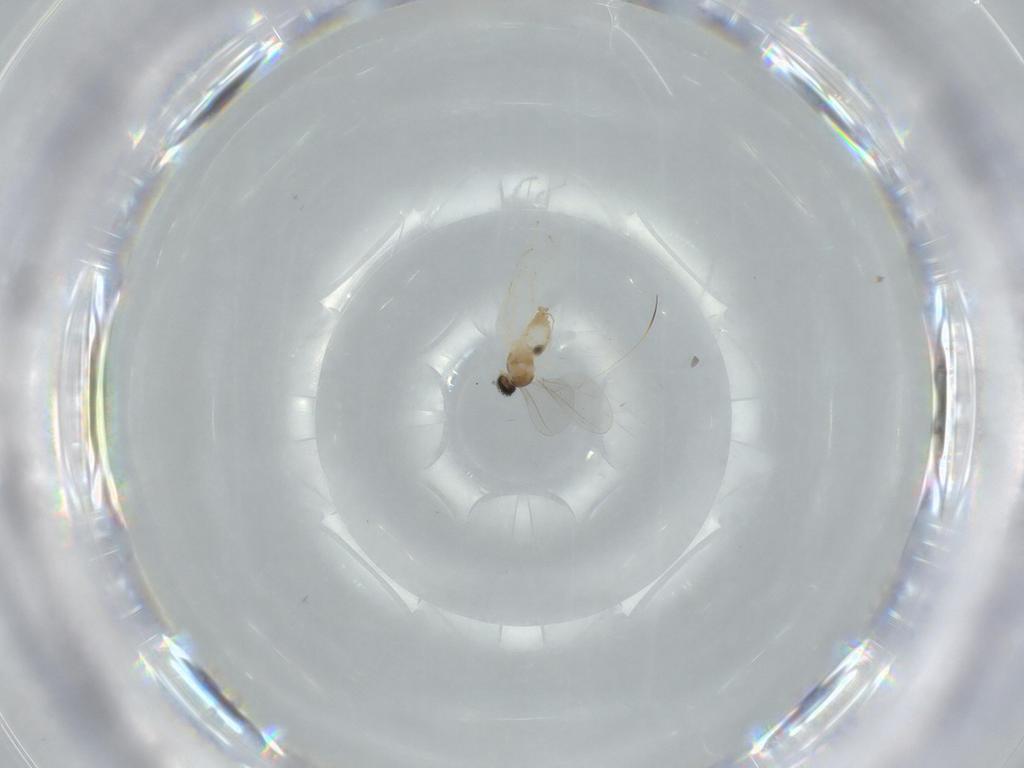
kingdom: Animalia
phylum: Arthropoda
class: Insecta
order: Diptera
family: Cecidomyiidae
